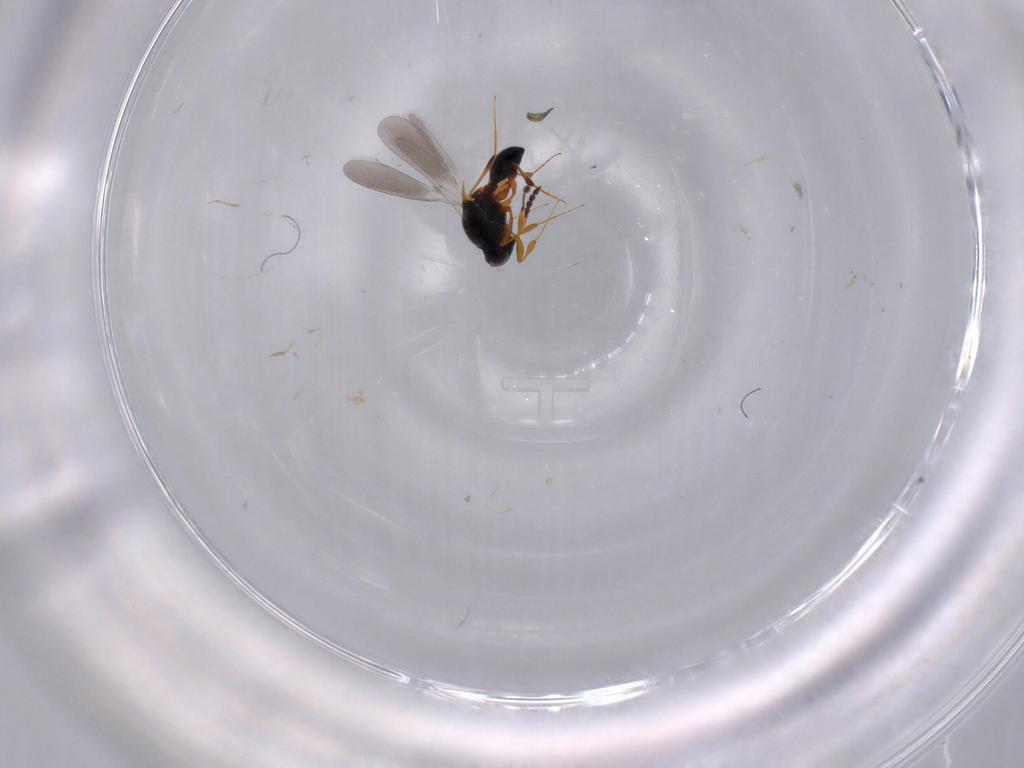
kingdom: Animalia
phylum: Arthropoda
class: Insecta
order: Hymenoptera
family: Platygastridae
